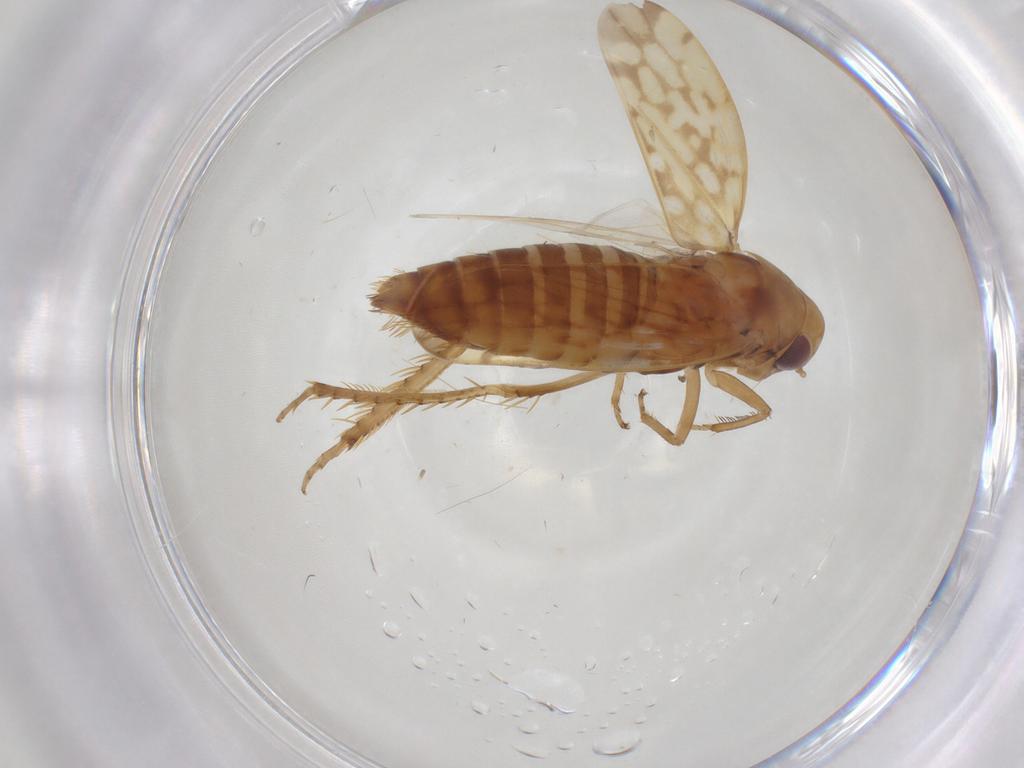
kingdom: Animalia
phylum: Arthropoda
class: Insecta
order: Hemiptera
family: Cicadellidae
